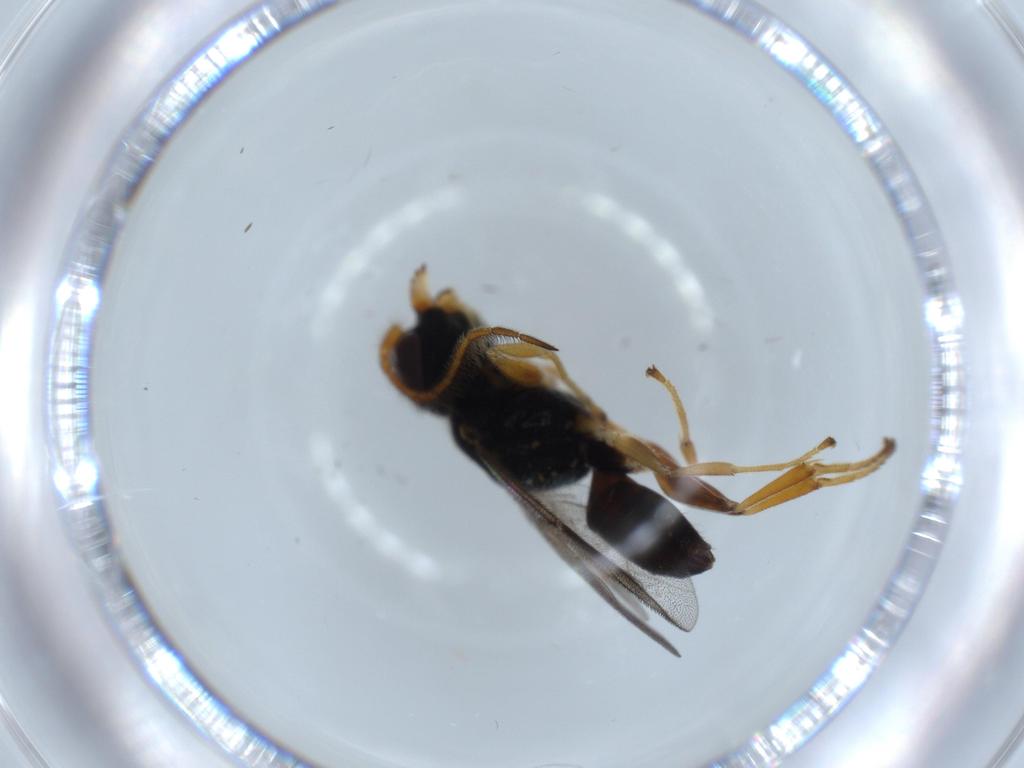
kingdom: Animalia
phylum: Arthropoda
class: Insecta
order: Hymenoptera
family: Dryinidae
